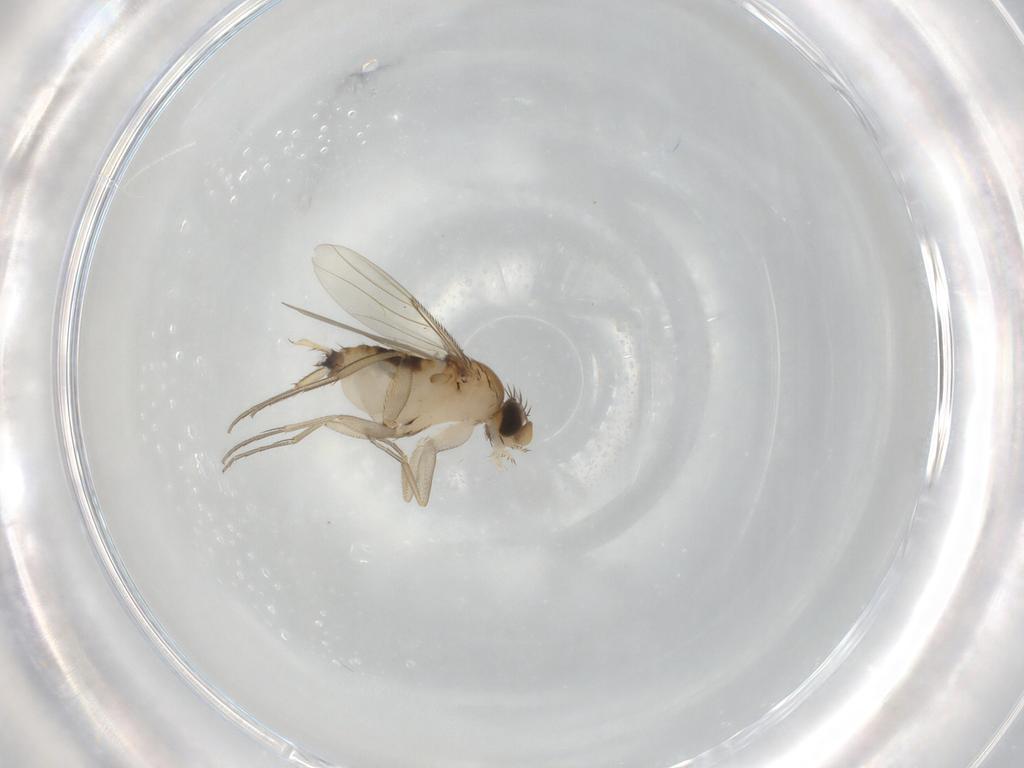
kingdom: Animalia
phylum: Arthropoda
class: Insecta
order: Diptera
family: Phoridae
